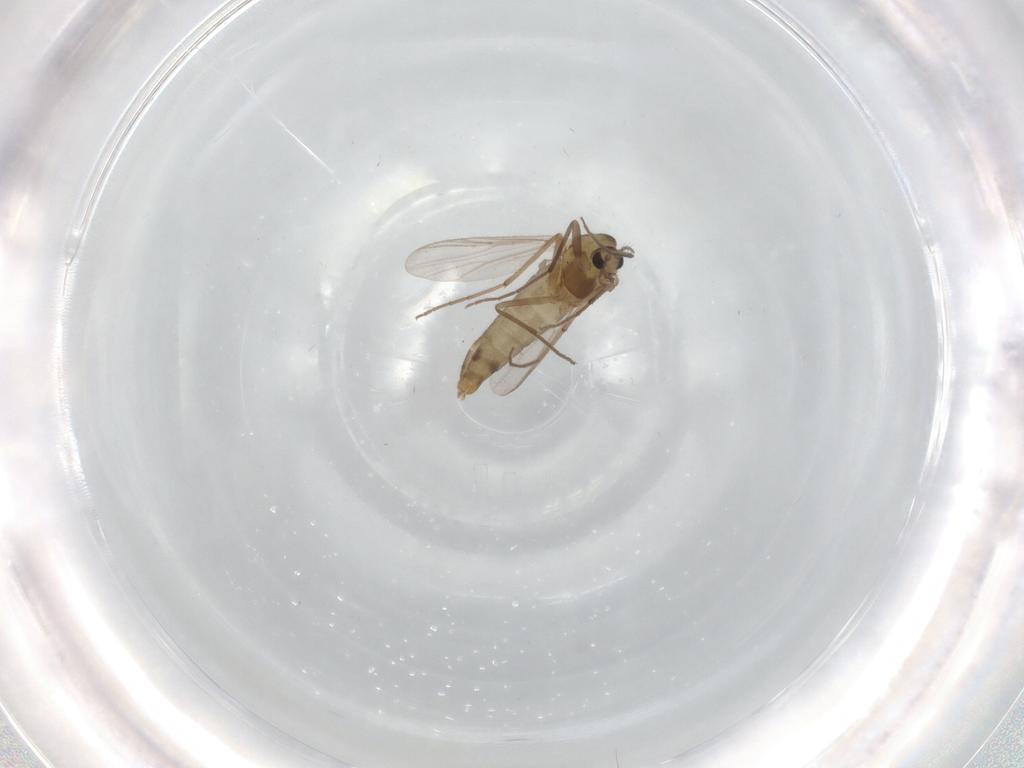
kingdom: Animalia
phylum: Arthropoda
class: Insecta
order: Diptera
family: Chironomidae
